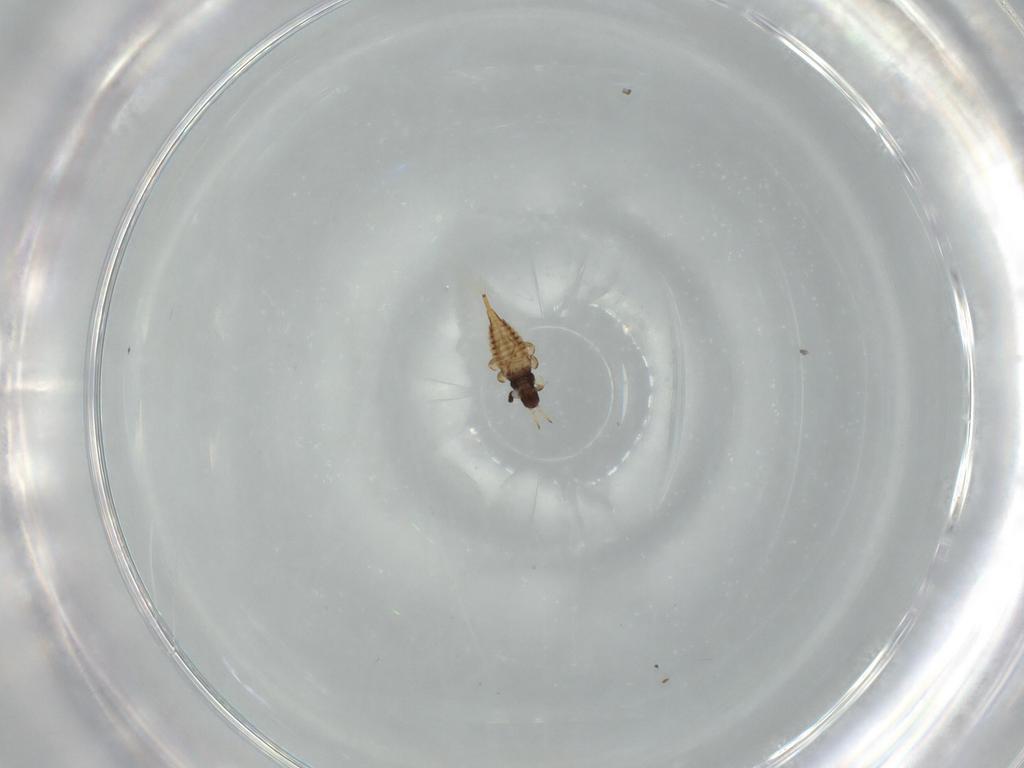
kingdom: Animalia
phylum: Arthropoda
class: Insecta
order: Thysanoptera
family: Phlaeothripidae
